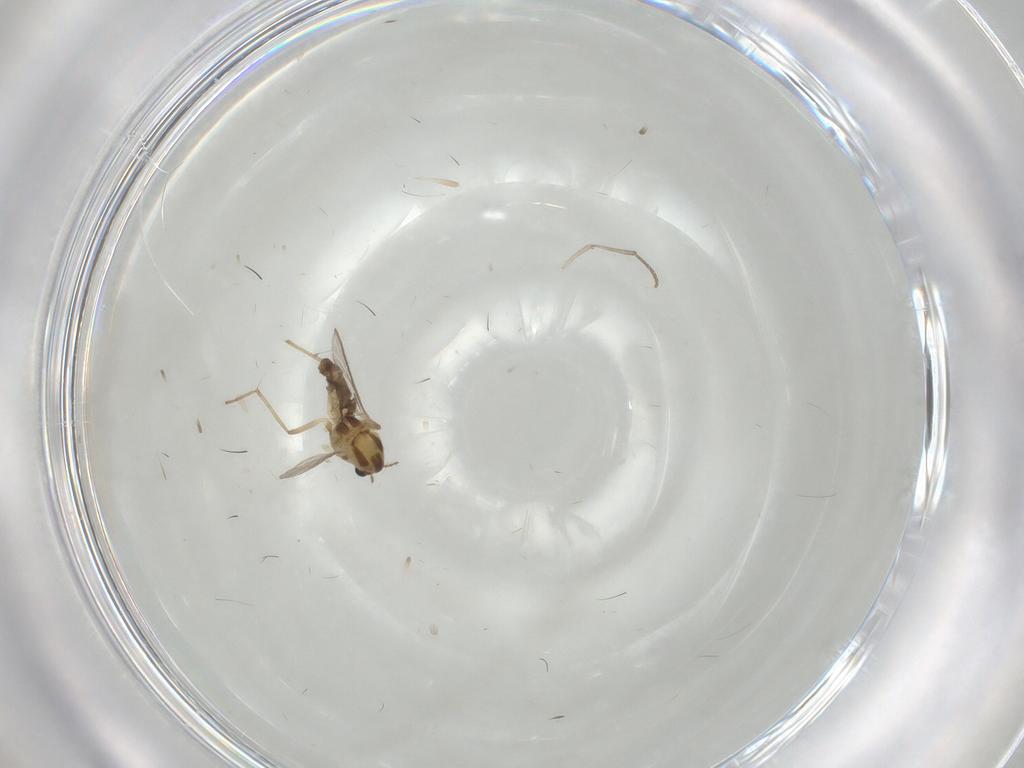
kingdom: Animalia
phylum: Arthropoda
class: Insecta
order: Diptera
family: Chironomidae
